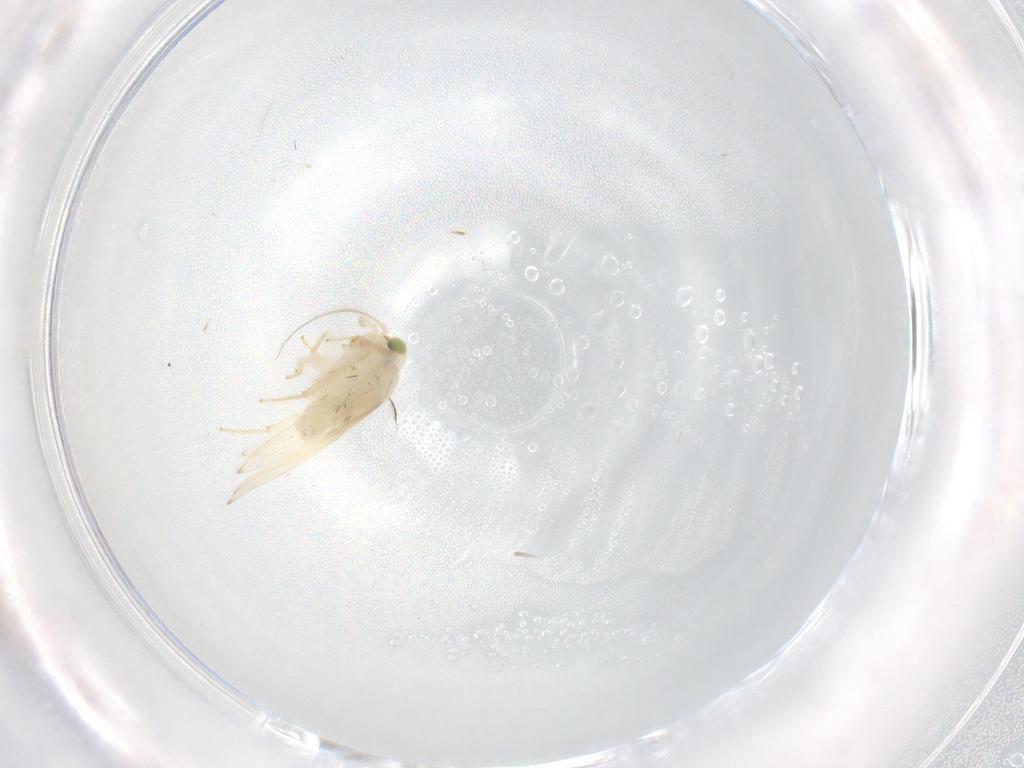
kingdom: Animalia
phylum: Arthropoda
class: Insecta
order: Psocodea
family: Lepidopsocidae
